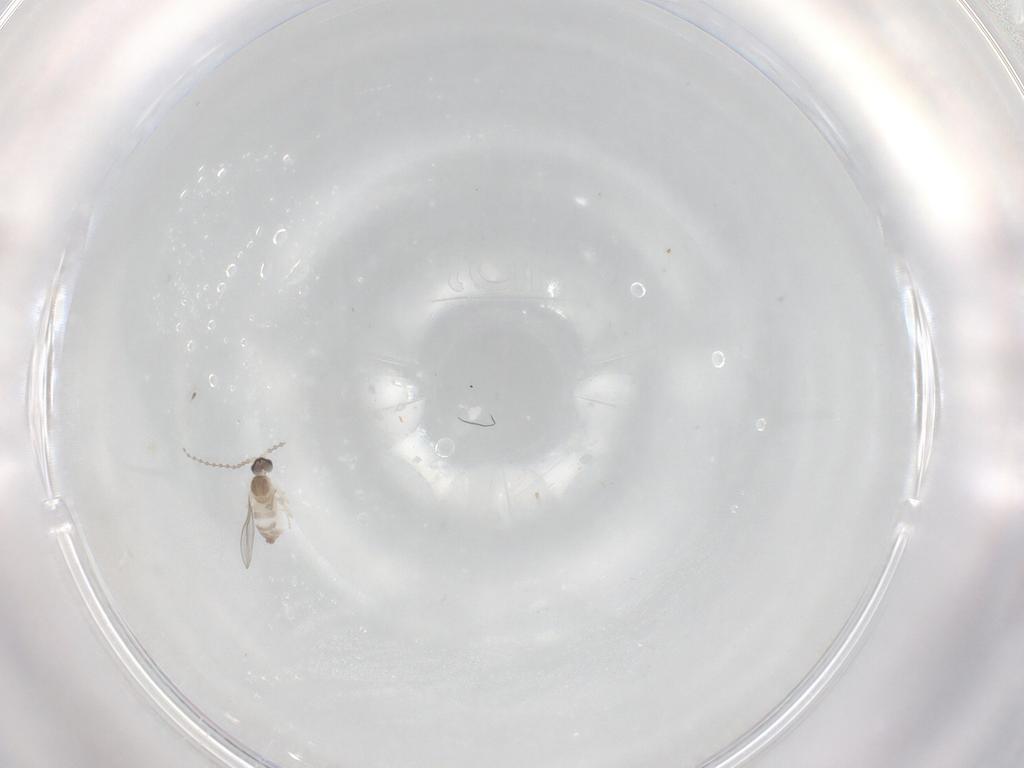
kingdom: Animalia
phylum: Arthropoda
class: Insecta
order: Diptera
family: Cecidomyiidae
